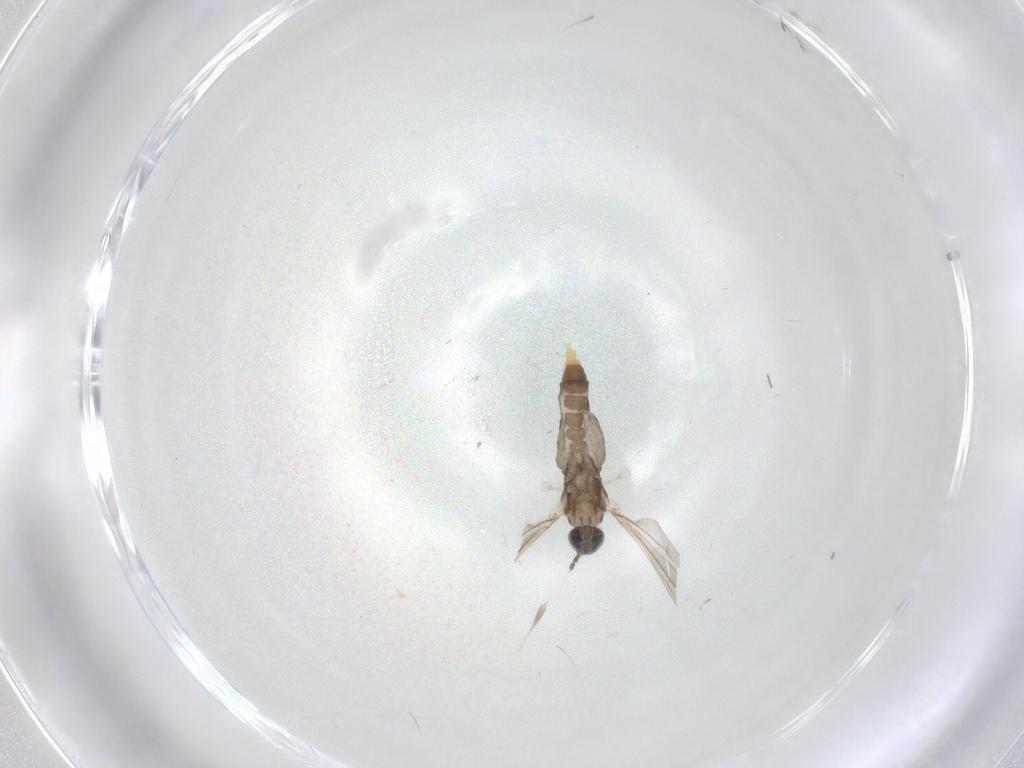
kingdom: Animalia
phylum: Arthropoda
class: Insecta
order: Diptera
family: Cecidomyiidae
